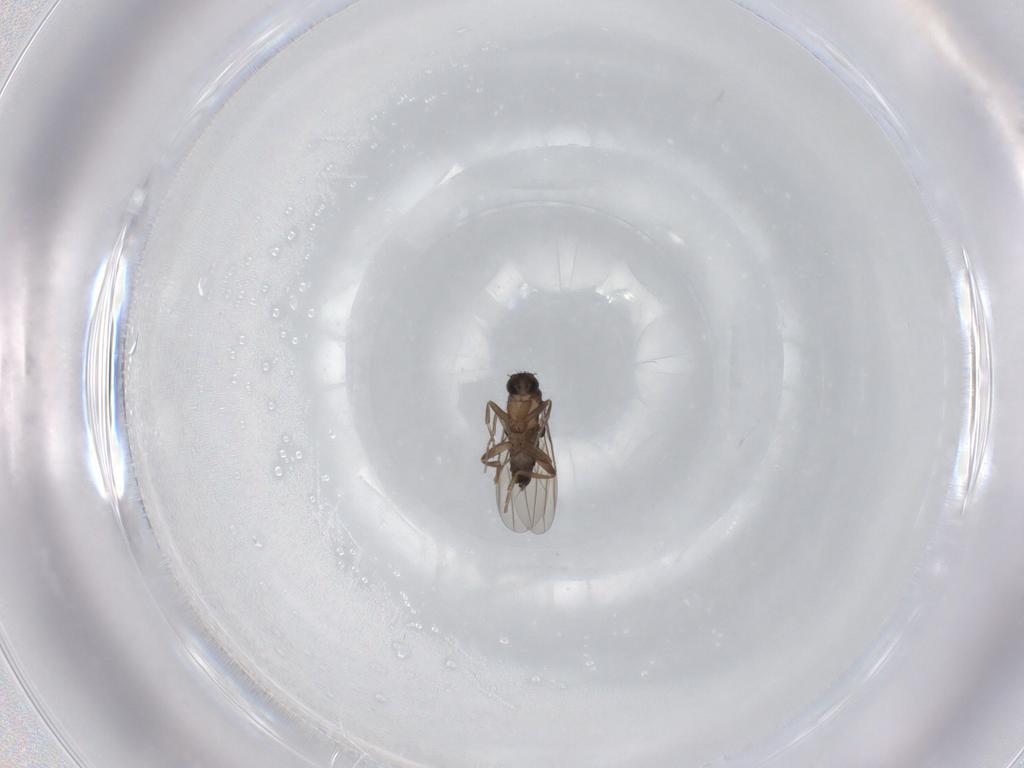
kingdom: Animalia
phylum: Arthropoda
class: Insecta
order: Diptera
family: Phoridae
